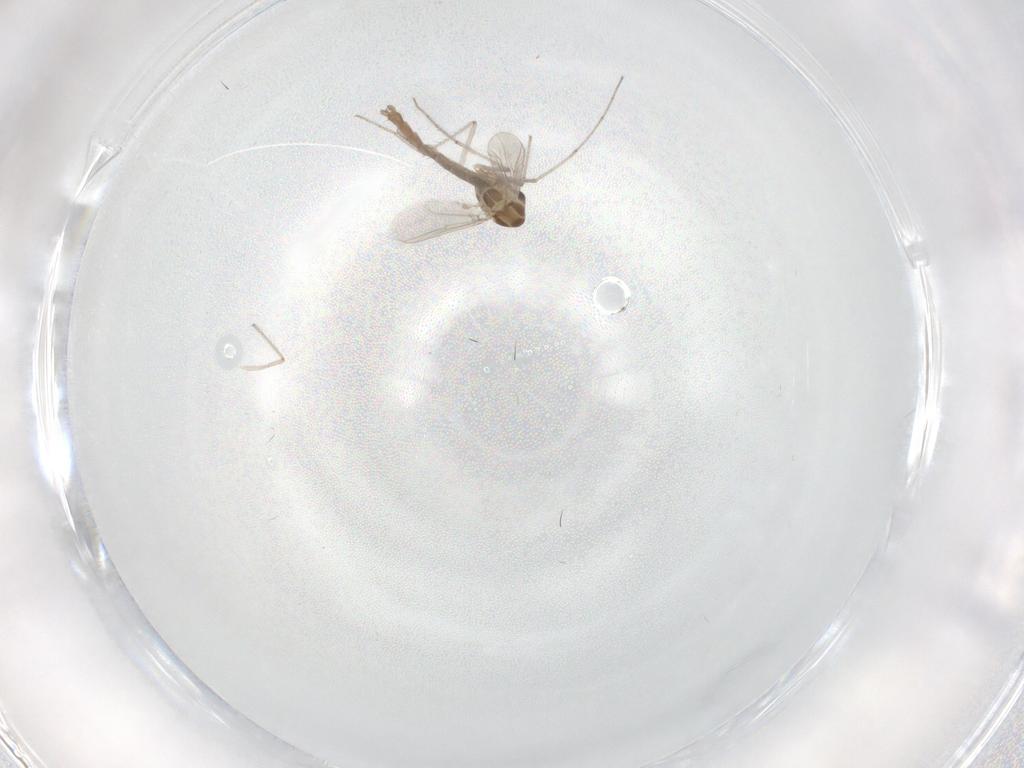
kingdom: Animalia
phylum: Arthropoda
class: Insecta
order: Diptera
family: Chironomidae
